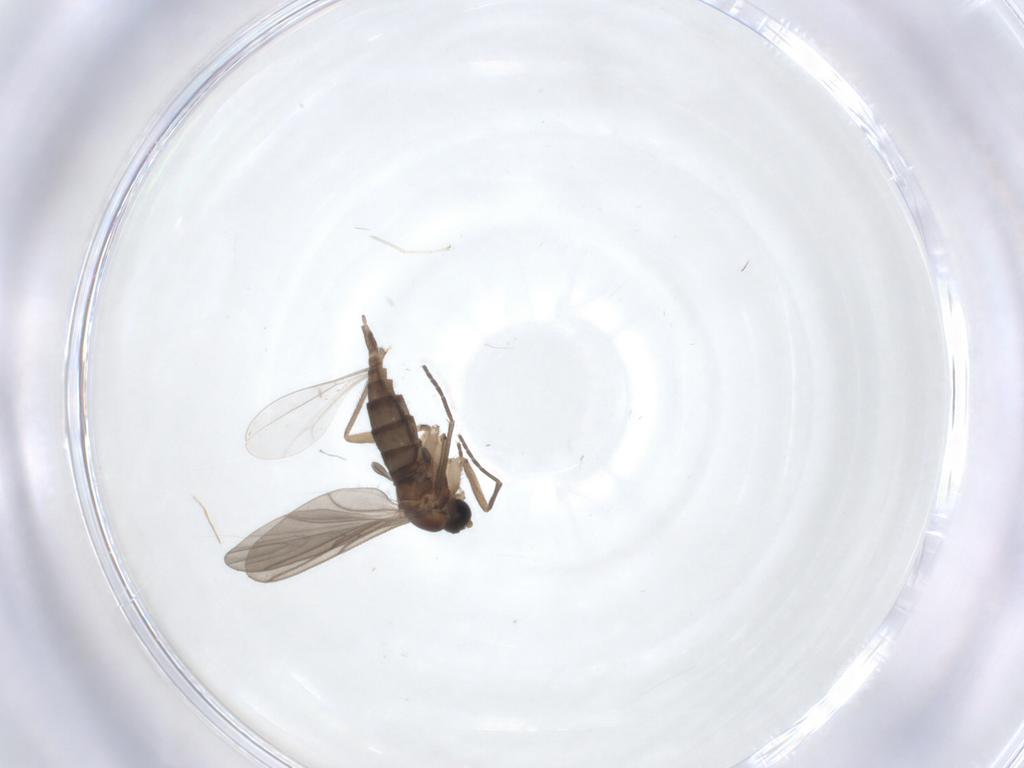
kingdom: Animalia
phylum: Arthropoda
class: Insecta
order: Diptera
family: Cecidomyiidae
